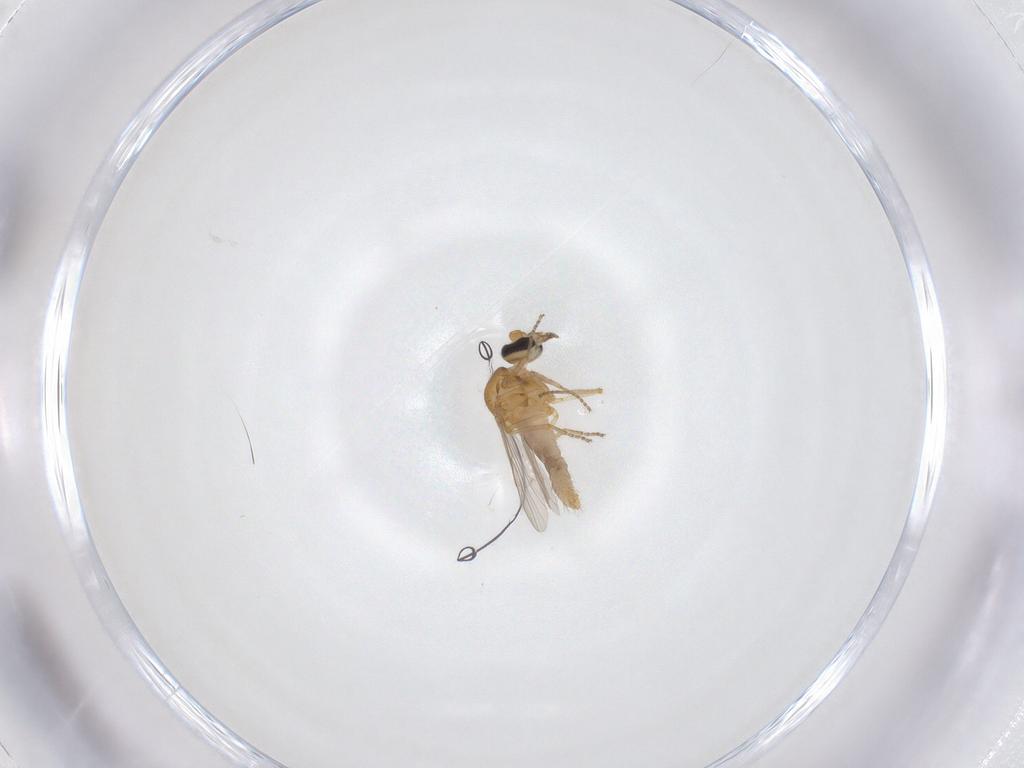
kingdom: Animalia
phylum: Arthropoda
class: Insecta
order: Diptera
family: Ceratopogonidae
